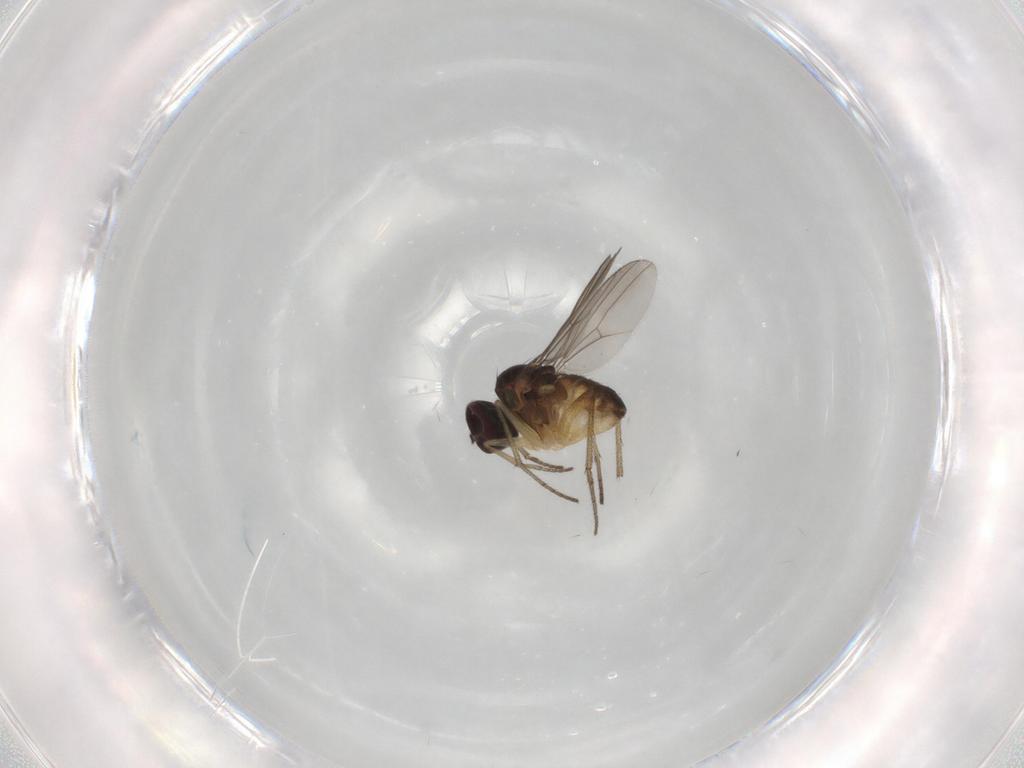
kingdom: Animalia
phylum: Arthropoda
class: Insecta
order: Diptera
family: Dolichopodidae
